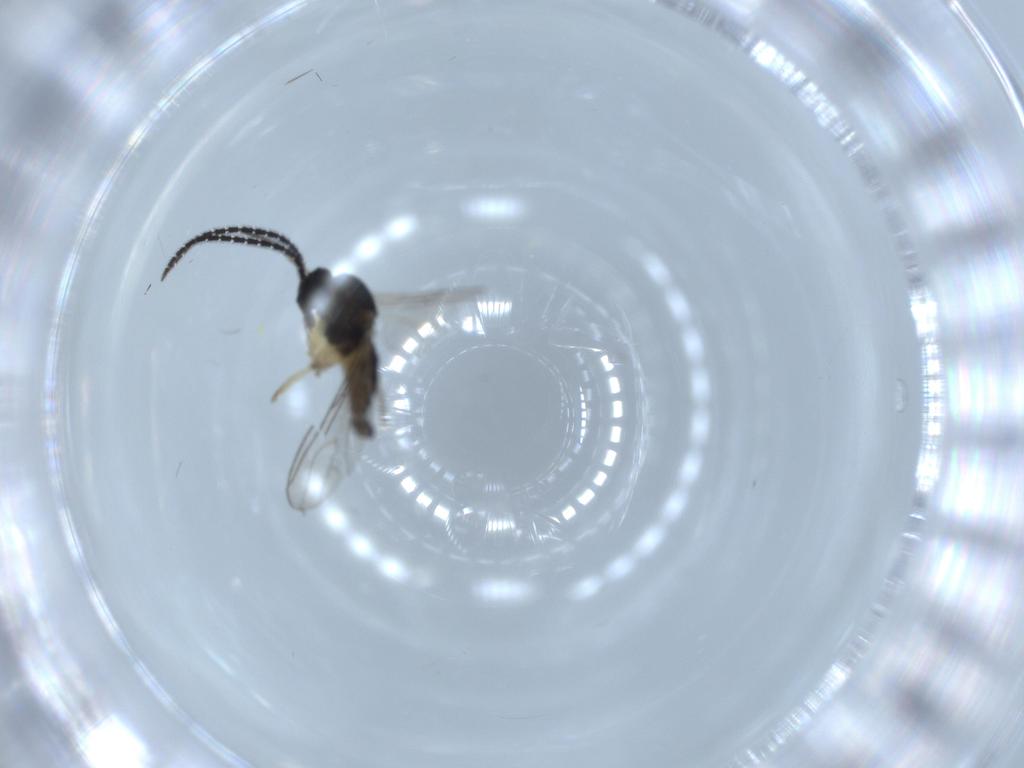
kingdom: Animalia
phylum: Arthropoda
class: Insecta
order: Diptera
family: Sciaridae
